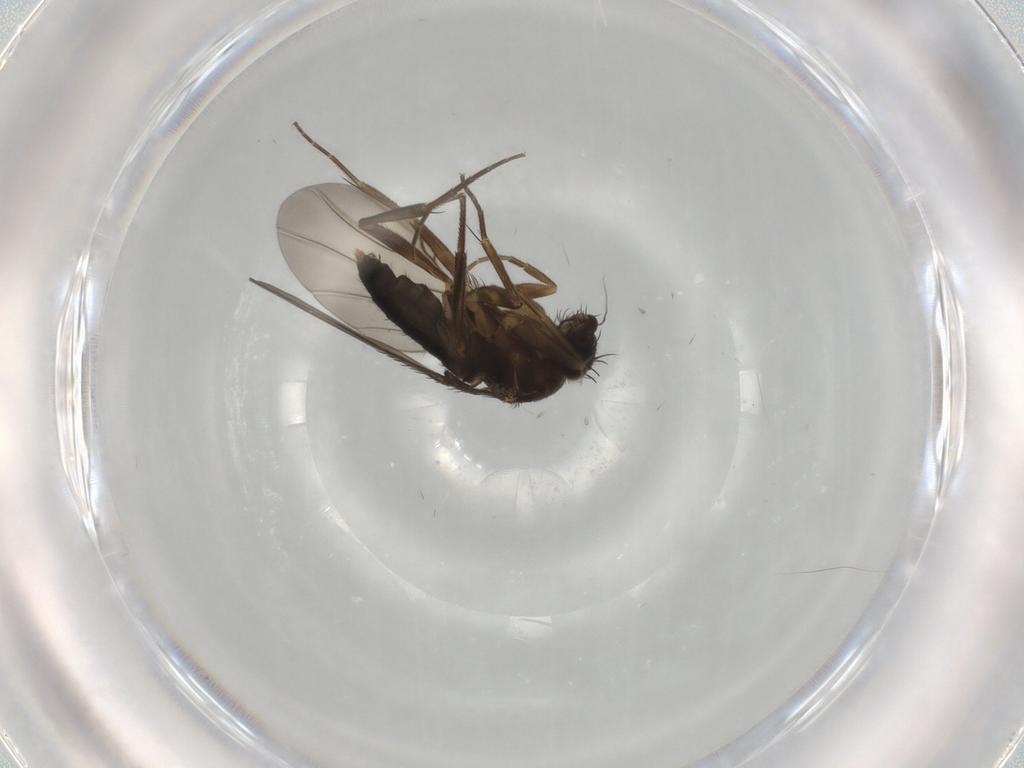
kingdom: Animalia
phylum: Arthropoda
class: Insecta
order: Diptera
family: Phoridae
